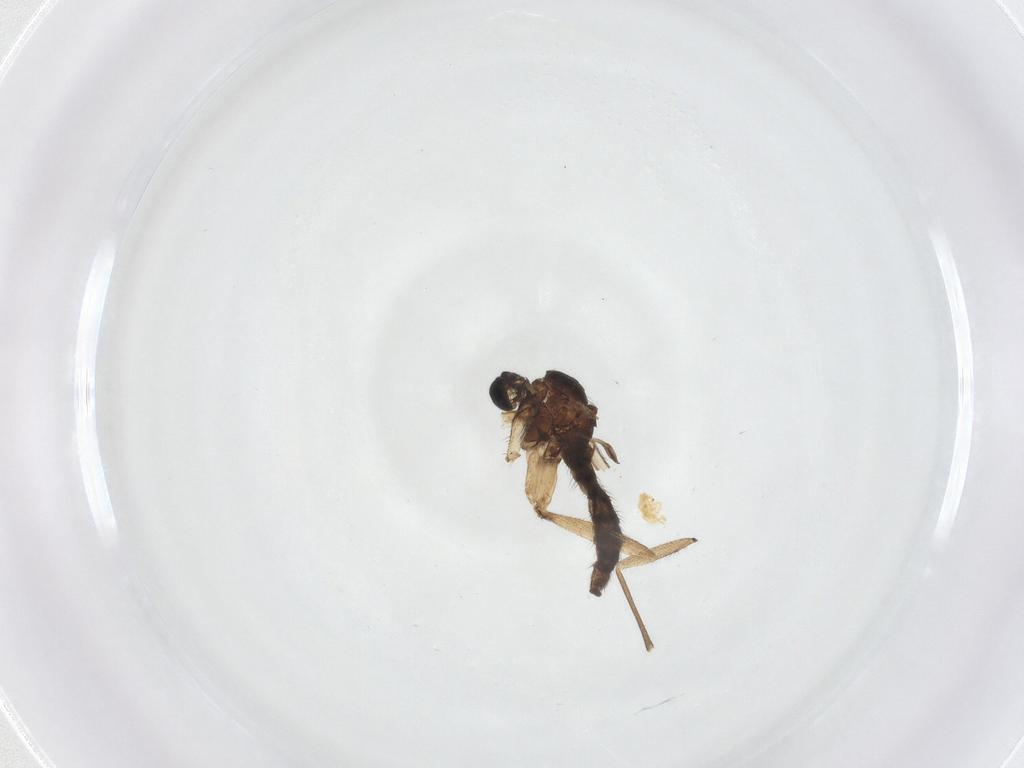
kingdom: Animalia
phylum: Arthropoda
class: Insecta
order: Diptera
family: Sciaridae
